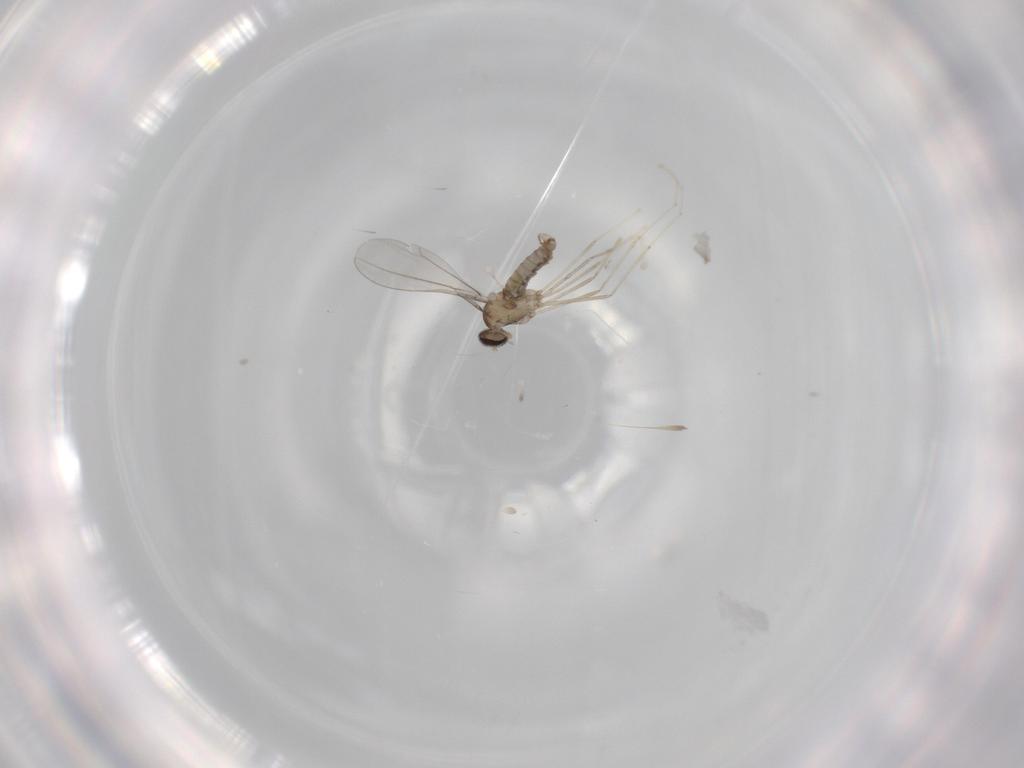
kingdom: Animalia
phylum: Arthropoda
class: Insecta
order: Diptera
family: Cecidomyiidae
